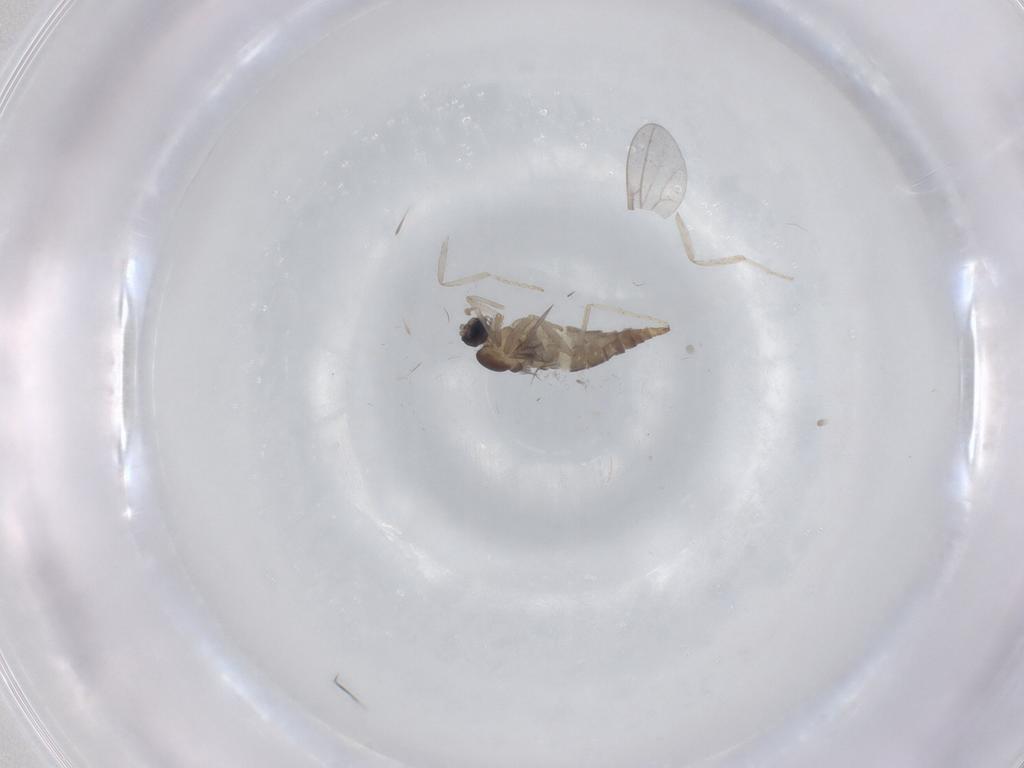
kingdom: Animalia
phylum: Arthropoda
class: Insecta
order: Diptera
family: Cecidomyiidae
